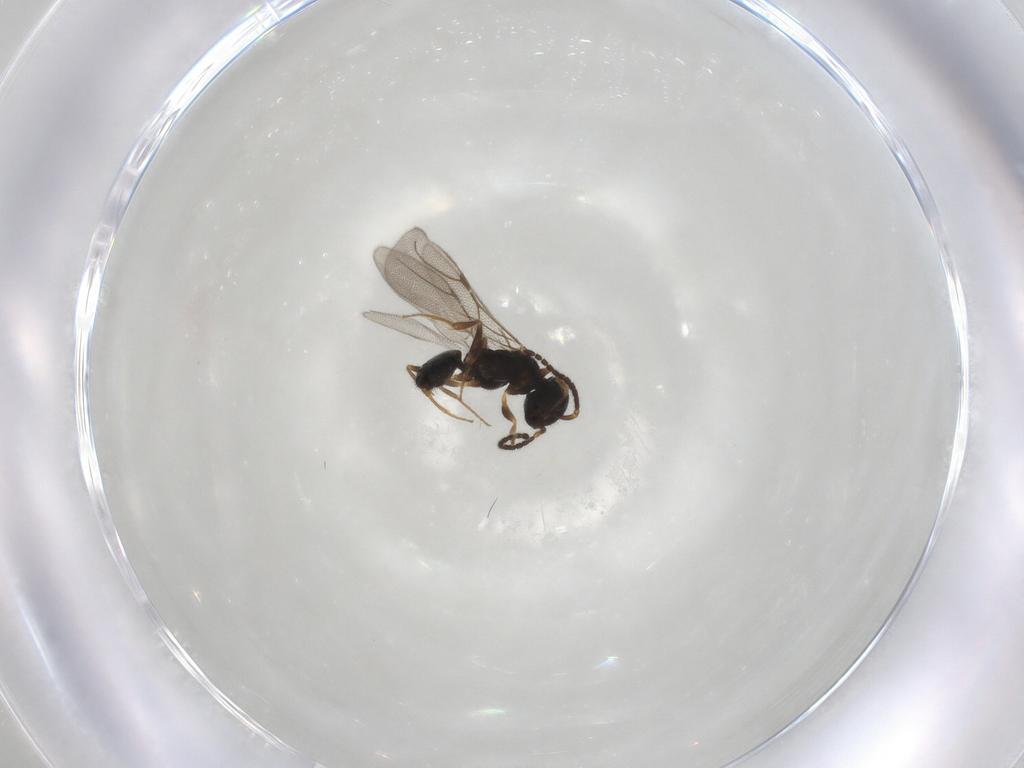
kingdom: Animalia
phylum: Arthropoda
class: Insecta
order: Hymenoptera
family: Bethylidae
